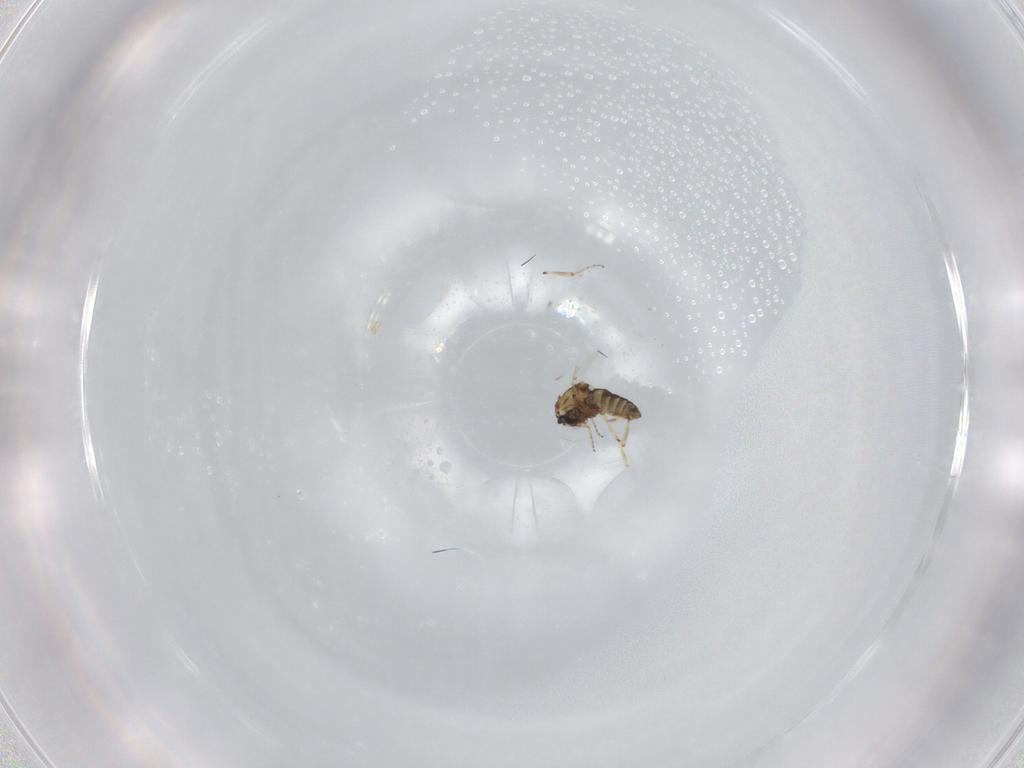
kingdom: Animalia
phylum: Arthropoda
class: Insecta
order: Diptera
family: Ceratopogonidae
